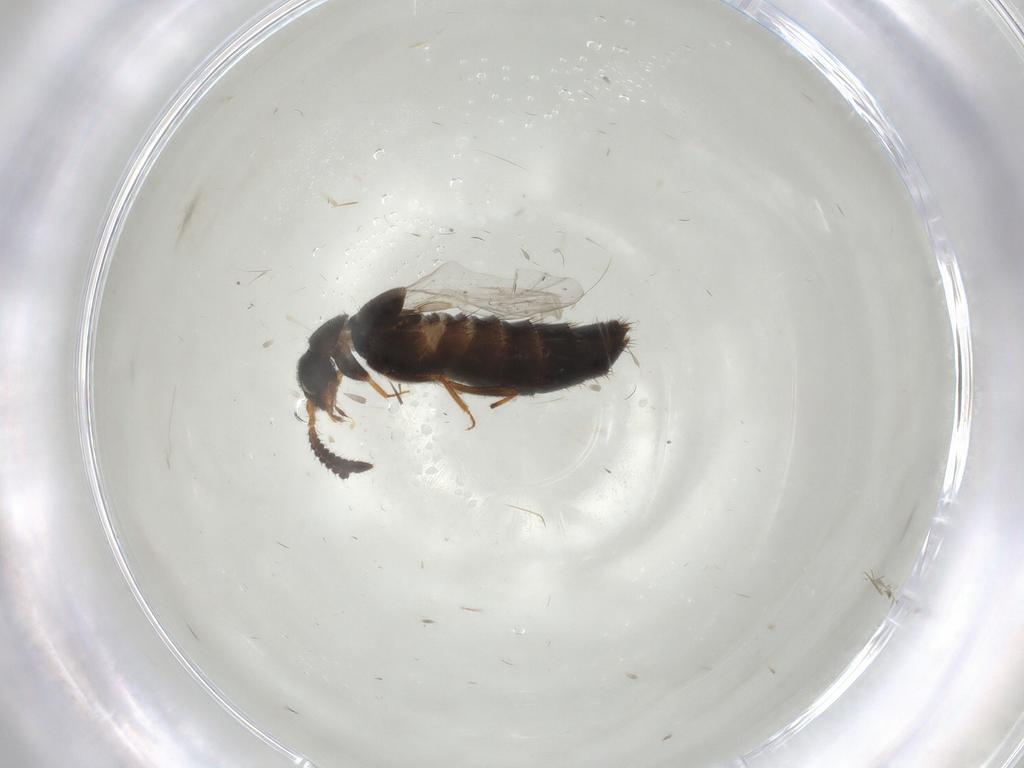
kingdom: Animalia
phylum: Arthropoda
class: Insecta
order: Coleoptera
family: Staphylinidae
